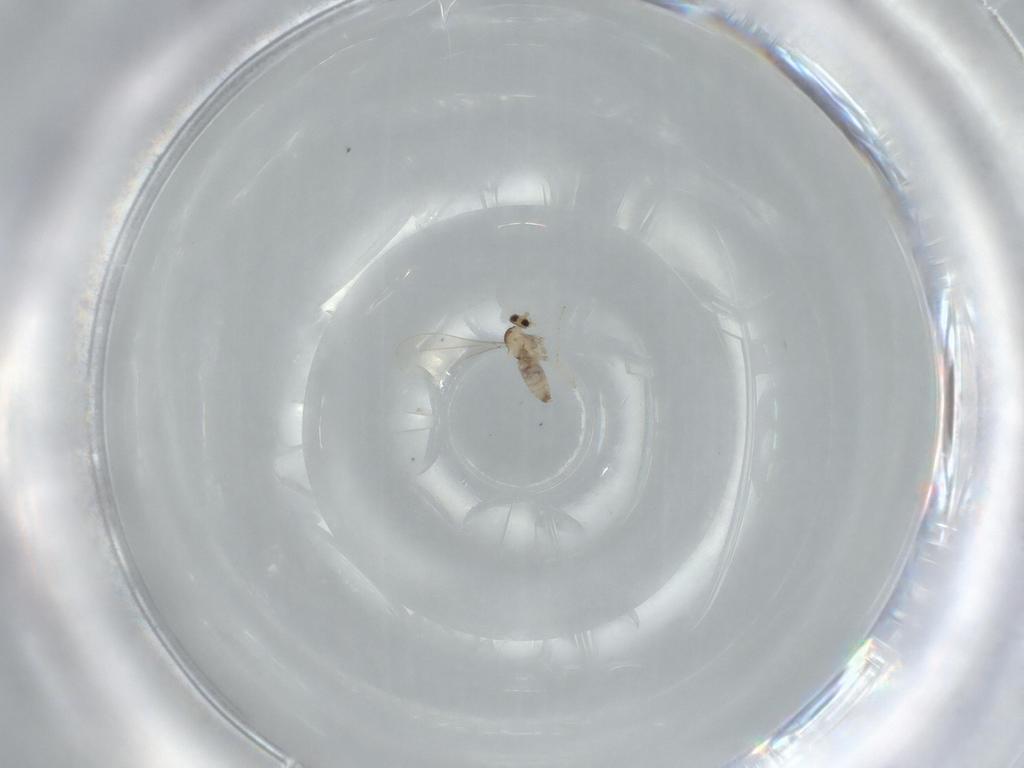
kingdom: Animalia
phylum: Arthropoda
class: Insecta
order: Diptera
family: Cecidomyiidae
